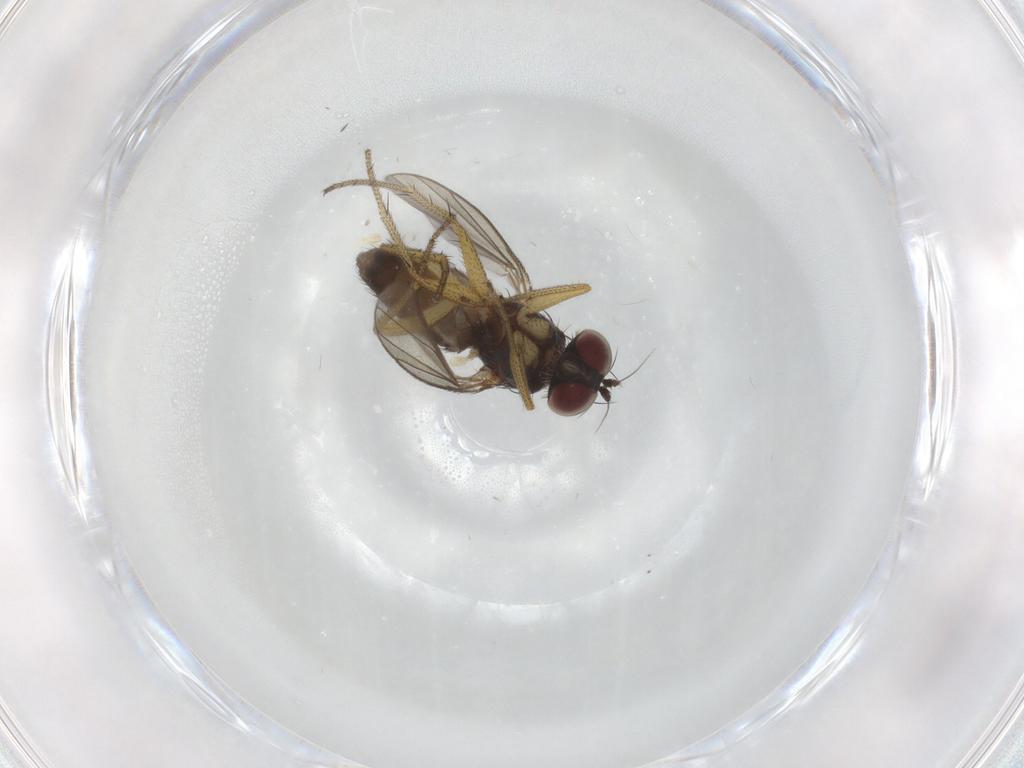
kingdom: Animalia
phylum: Arthropoda
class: Insecta
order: Diptera
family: Dolichopodidae
